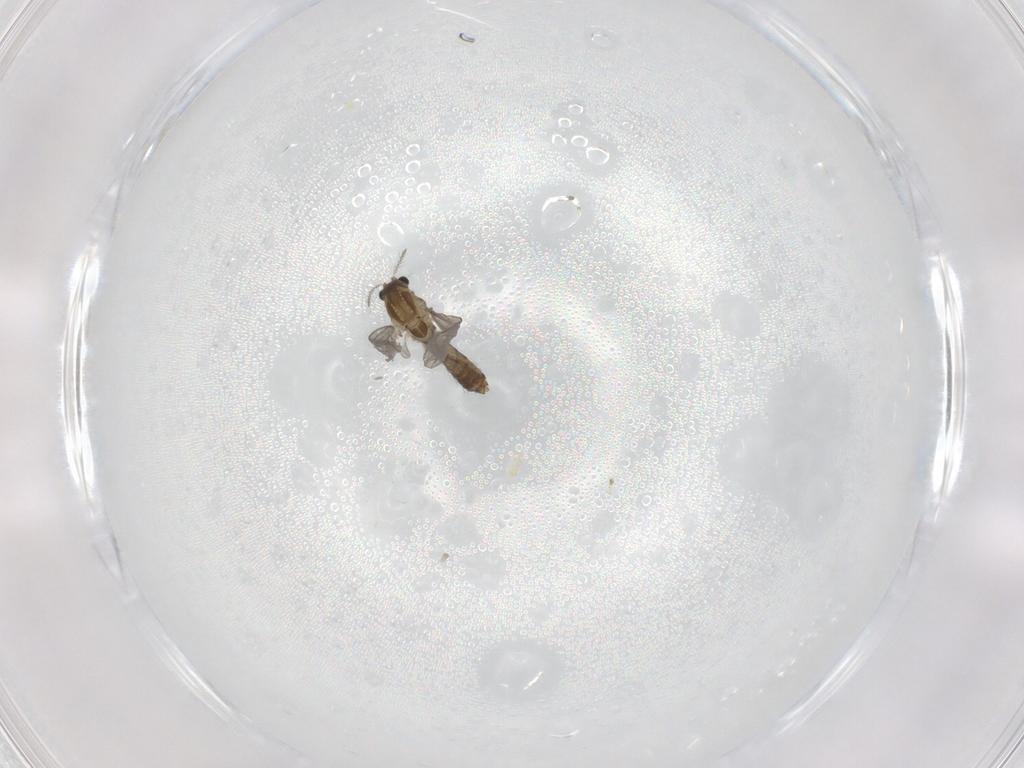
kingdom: Animalia
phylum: Arthropoda
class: Insecta
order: Diptera
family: Chironomidae
